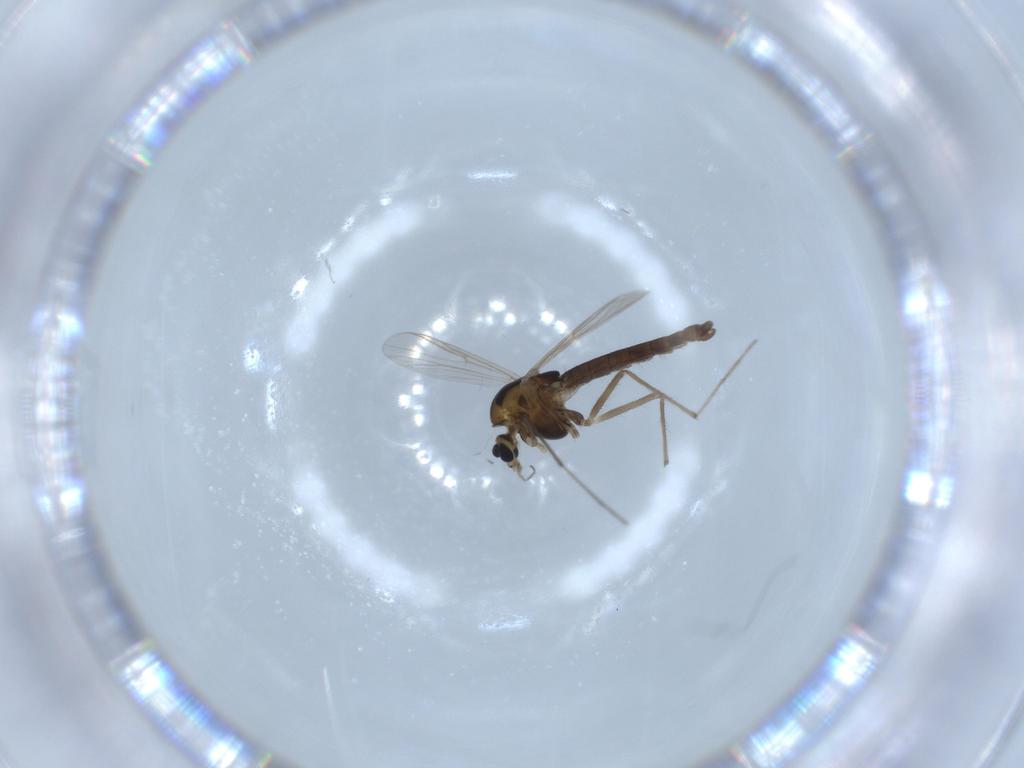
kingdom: Animalia
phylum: Arthropoda
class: Insecta
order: Diptera
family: Chironomidae
